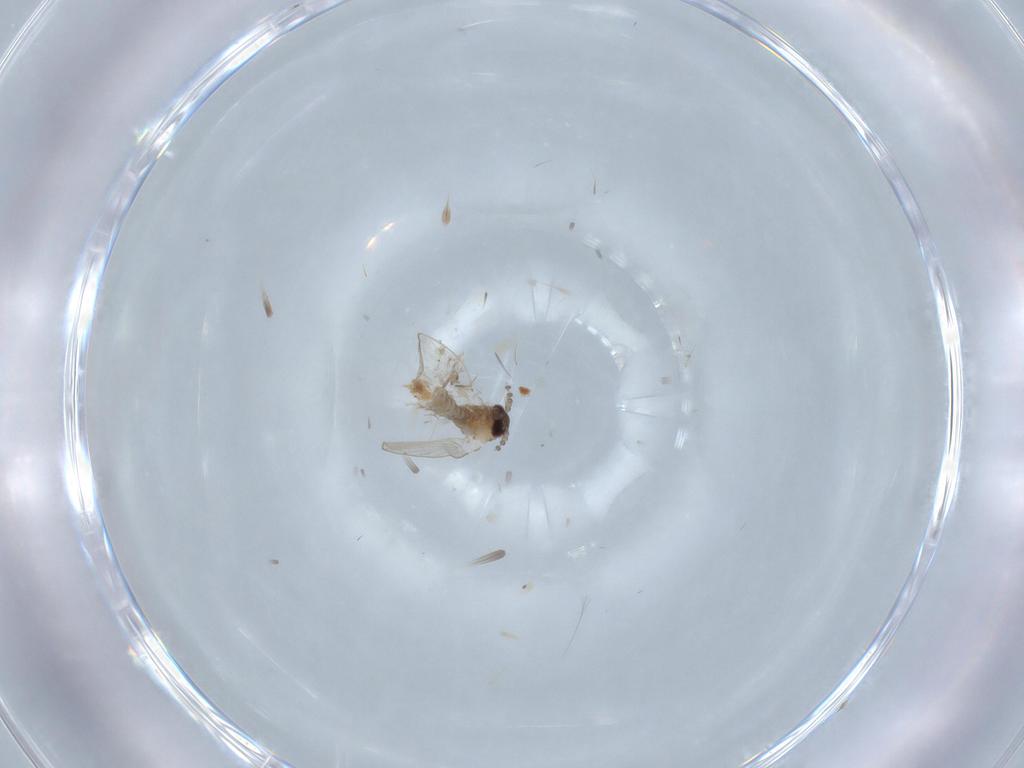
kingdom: Animalia
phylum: Arthropoda
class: Insecta
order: Diptera
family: Psychodidae
